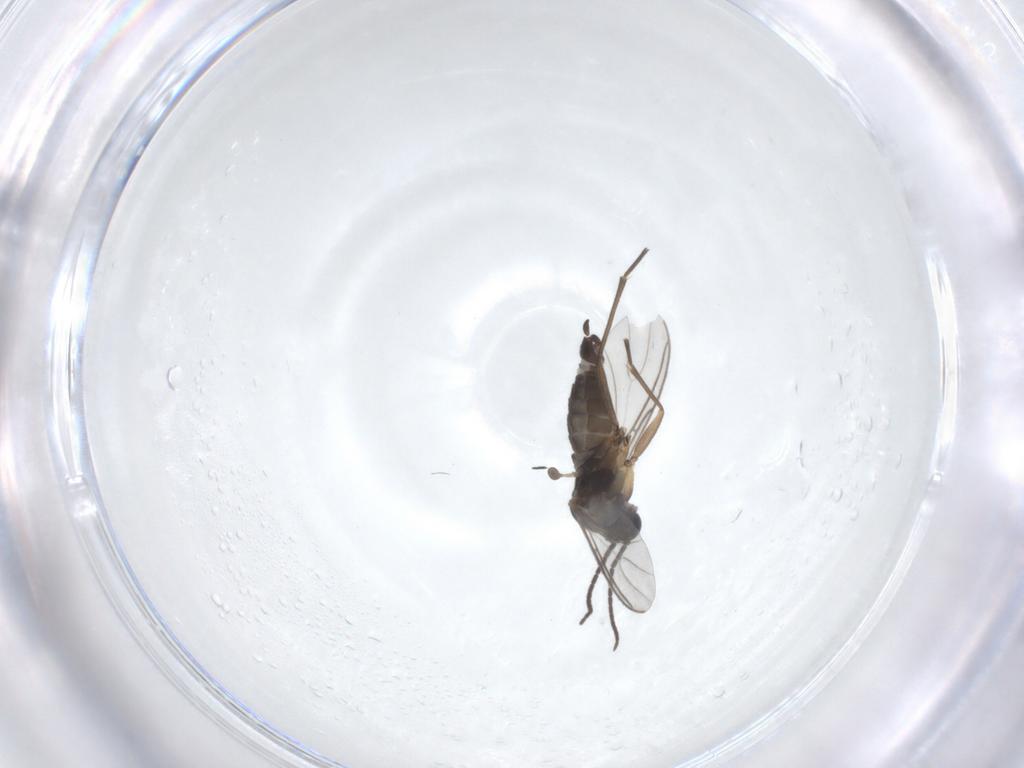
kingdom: Animalia
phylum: Arthropoda
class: Insecta
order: Diptera
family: Sciaridae
